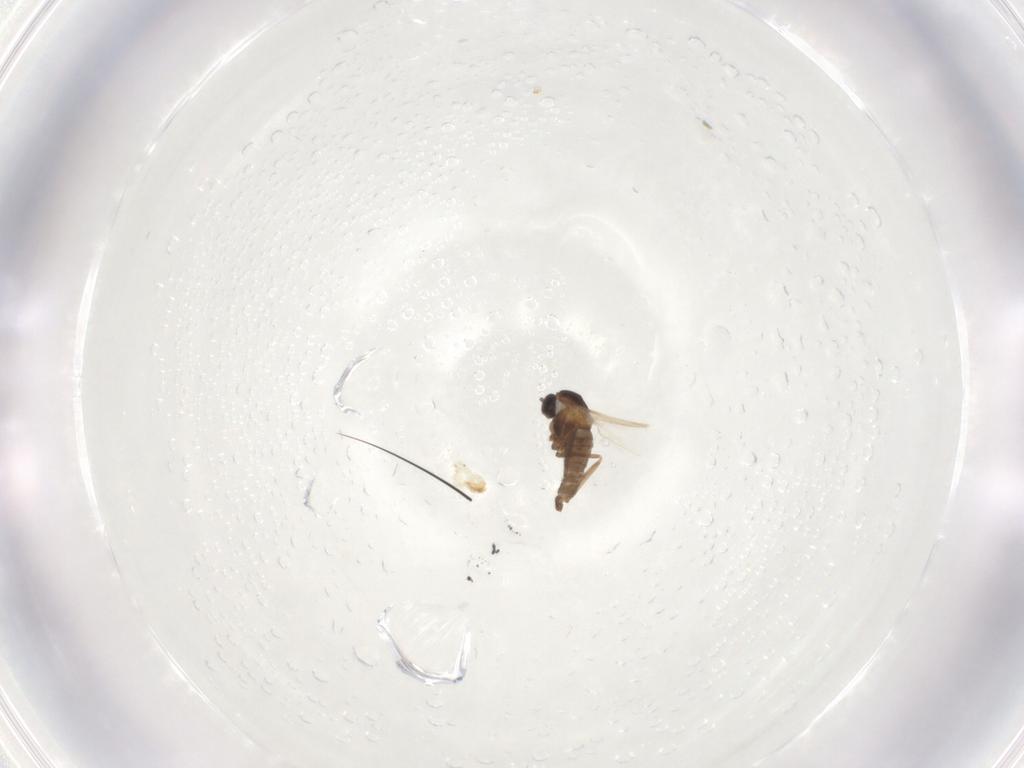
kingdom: Animalia
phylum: Arthropoda
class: Insecta
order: Diptera
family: Cecidomyiidae
